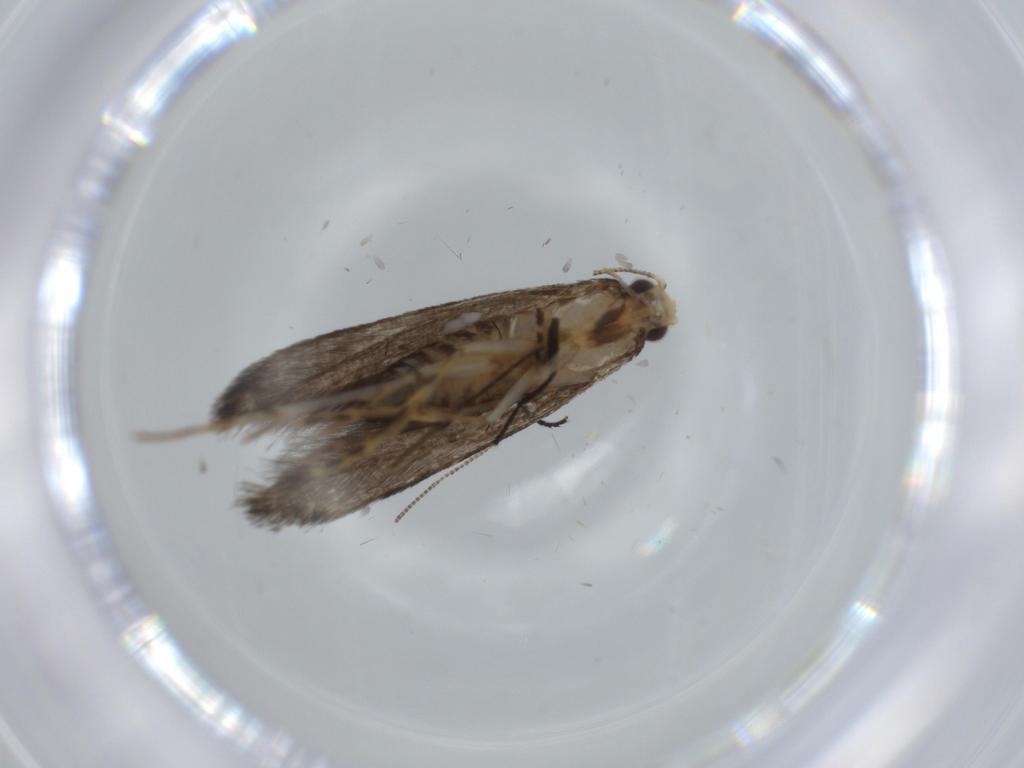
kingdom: Animalia
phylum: Arthropoda
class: Insecta
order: Lepidoptera
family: Tineidae
